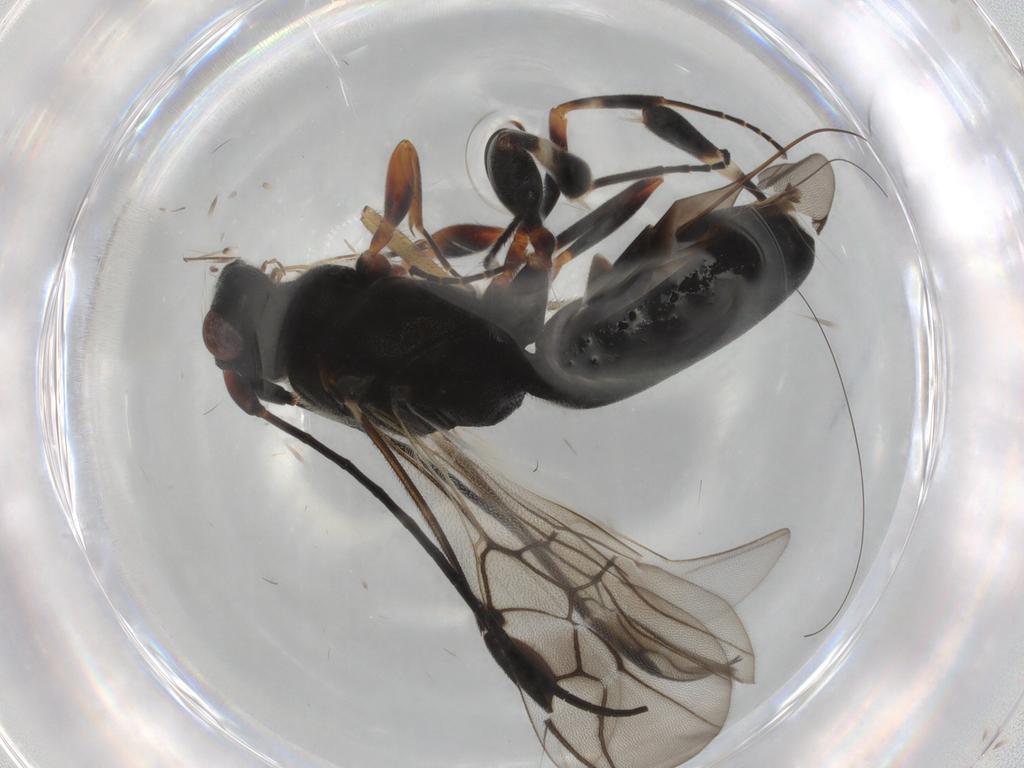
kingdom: Animalia
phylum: Arthropoda
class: Insecta
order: Hymenoptera
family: Braconidae
